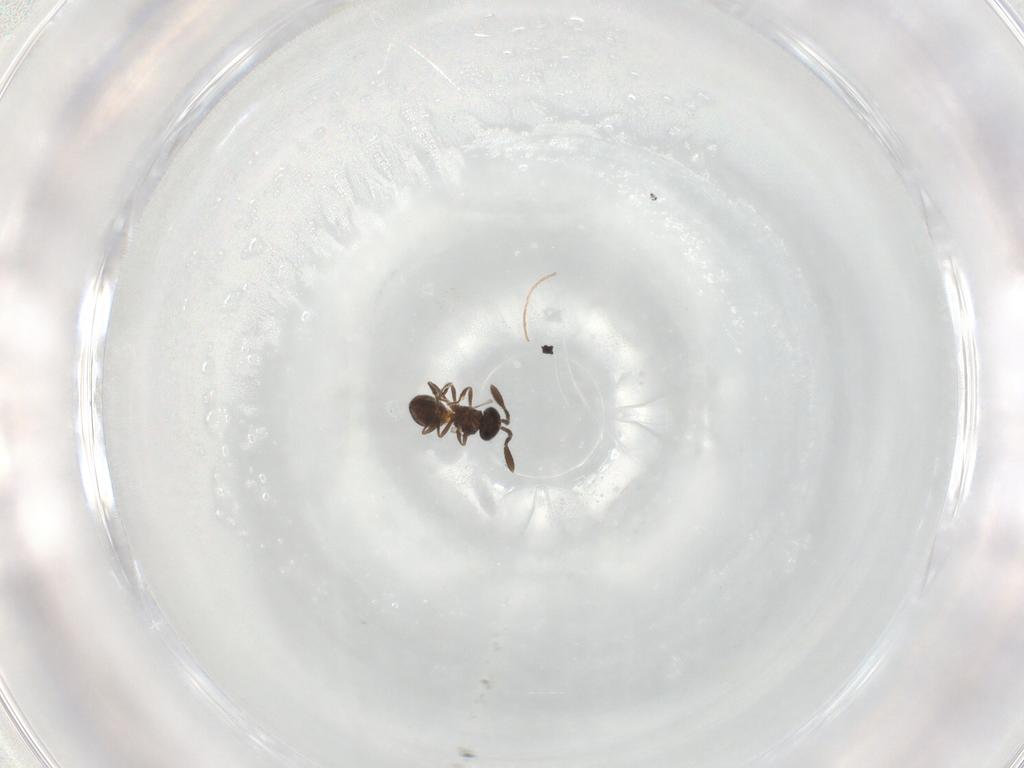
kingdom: Animalia
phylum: Arthropoda
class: Insecta
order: Hymenoptera
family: Scelionidae
